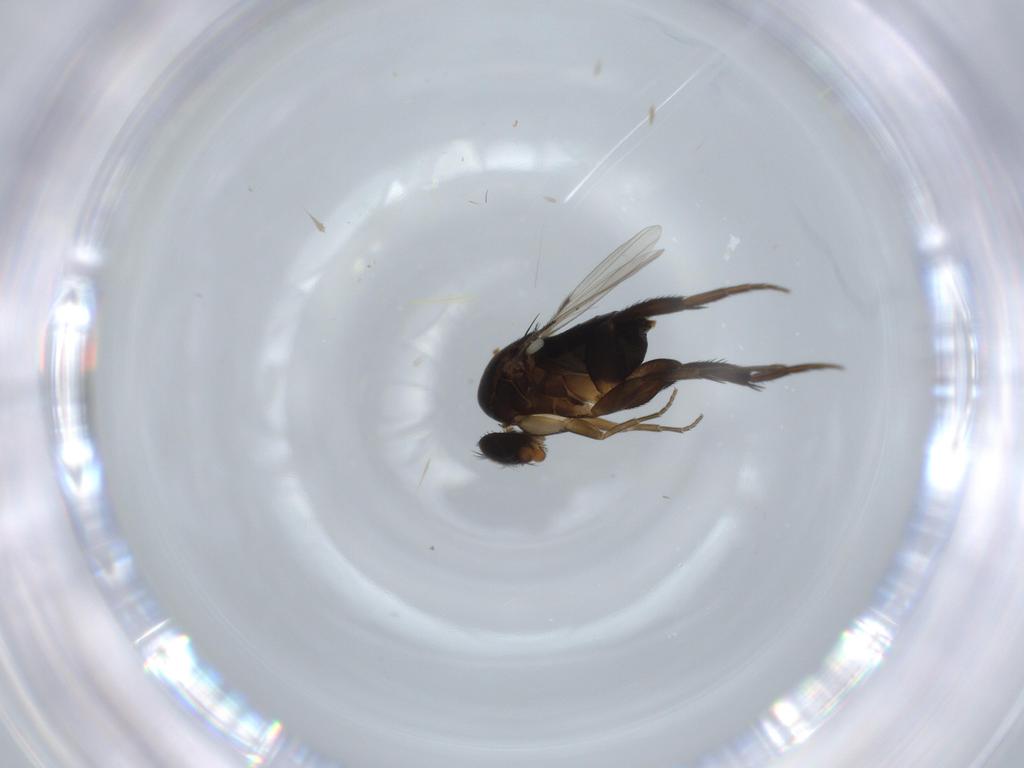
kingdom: Animalia
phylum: Arthropoda
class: Insecta
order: Diptera
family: Phoridae
